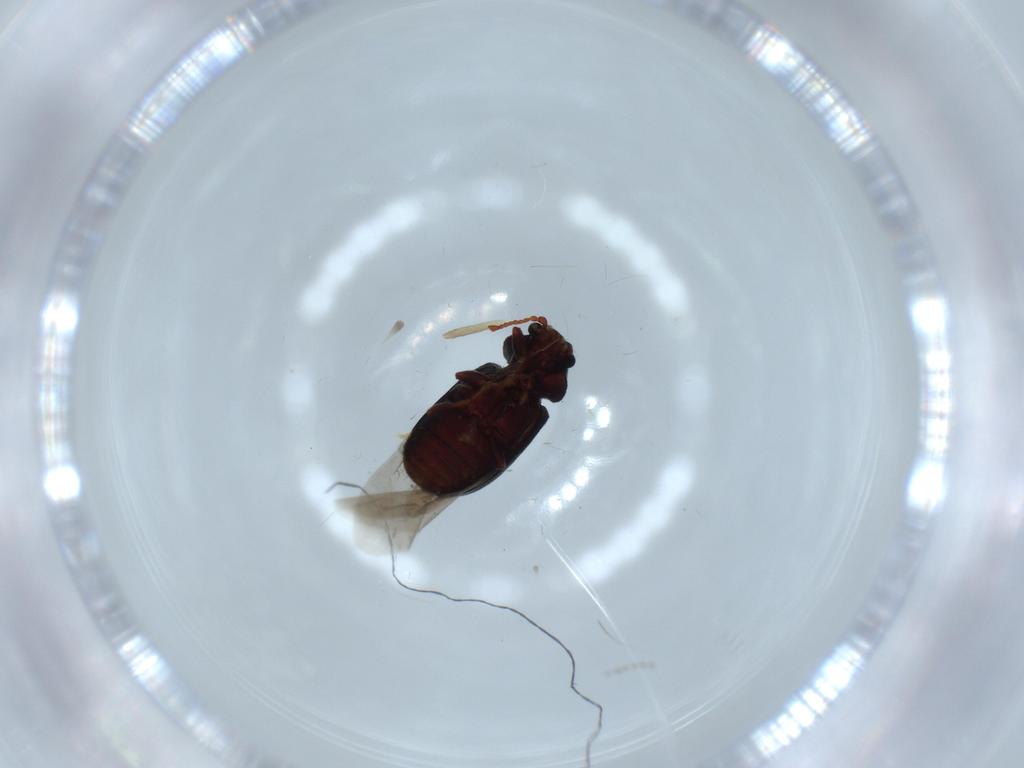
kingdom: Animalia
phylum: Arthropoda
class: Insecta
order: Coleoptera
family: Ptinidae
